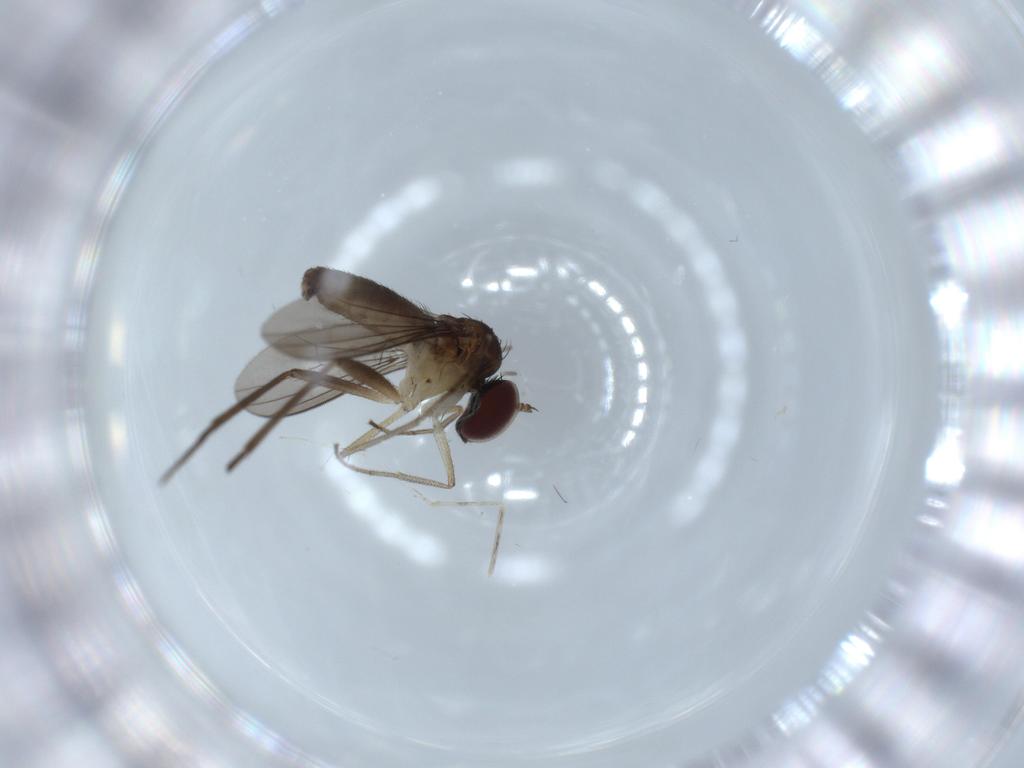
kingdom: Animalia
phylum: Arthropoda
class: Insecta
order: Diptera
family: Dolichopodidae
